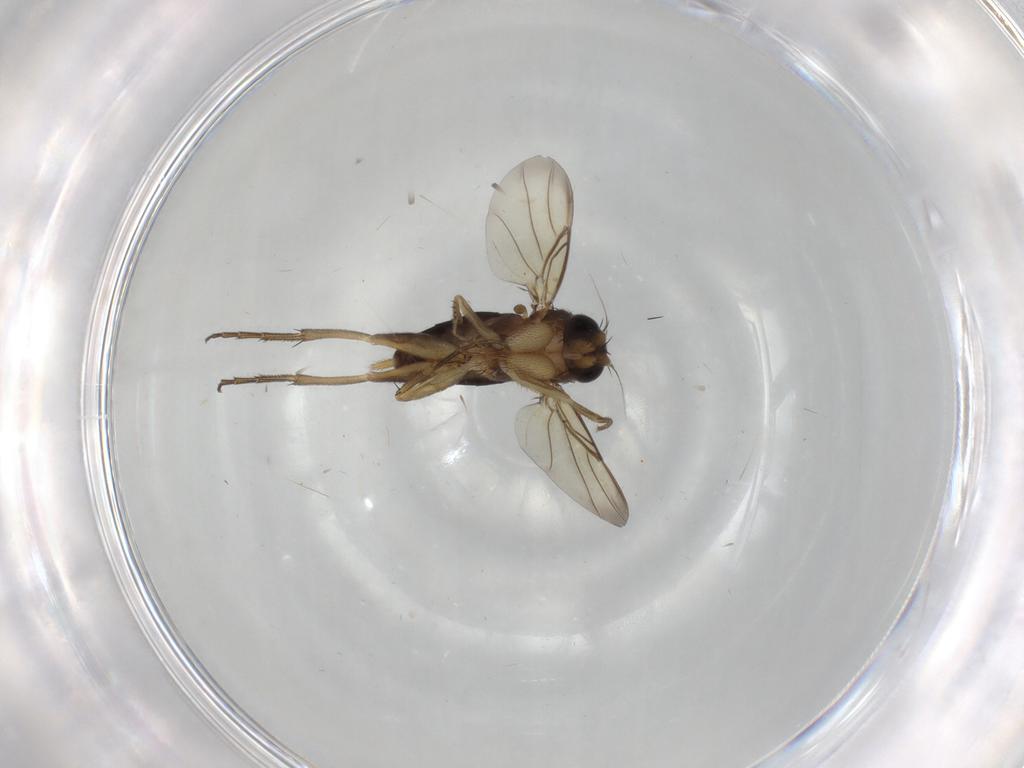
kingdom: Animalia
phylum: Arthropoda
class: Insecta
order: Diptera
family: Phoridae
